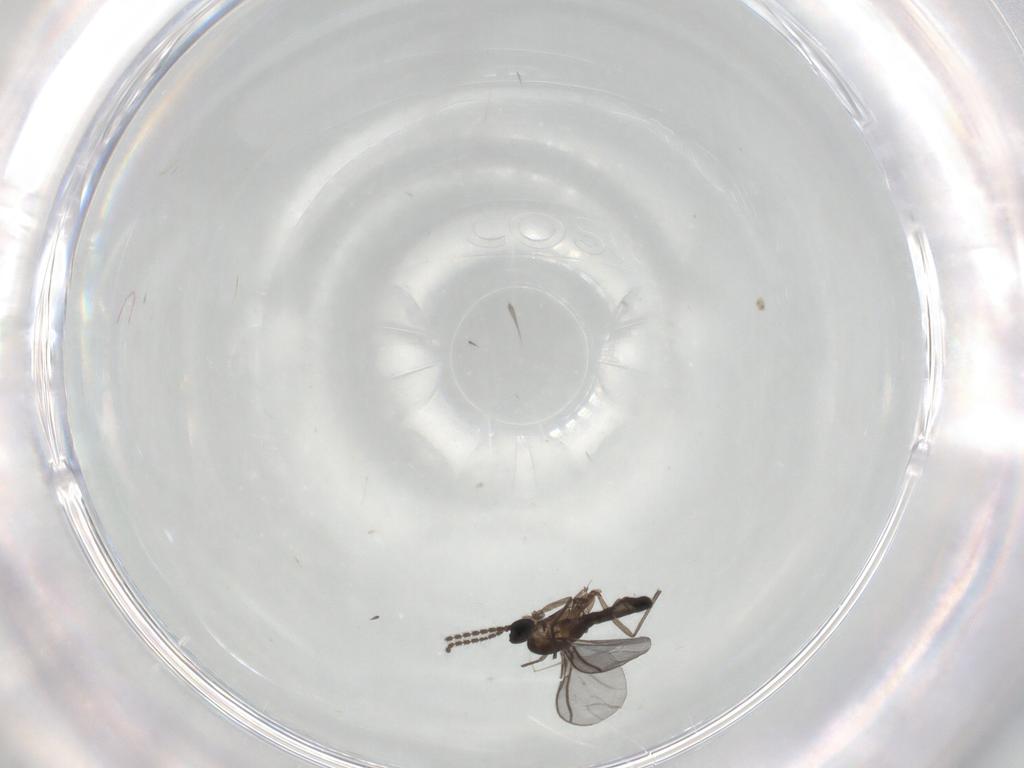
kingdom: Animalia
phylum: Arthropoda
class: Insecta
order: Diptera
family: Sciaridae
